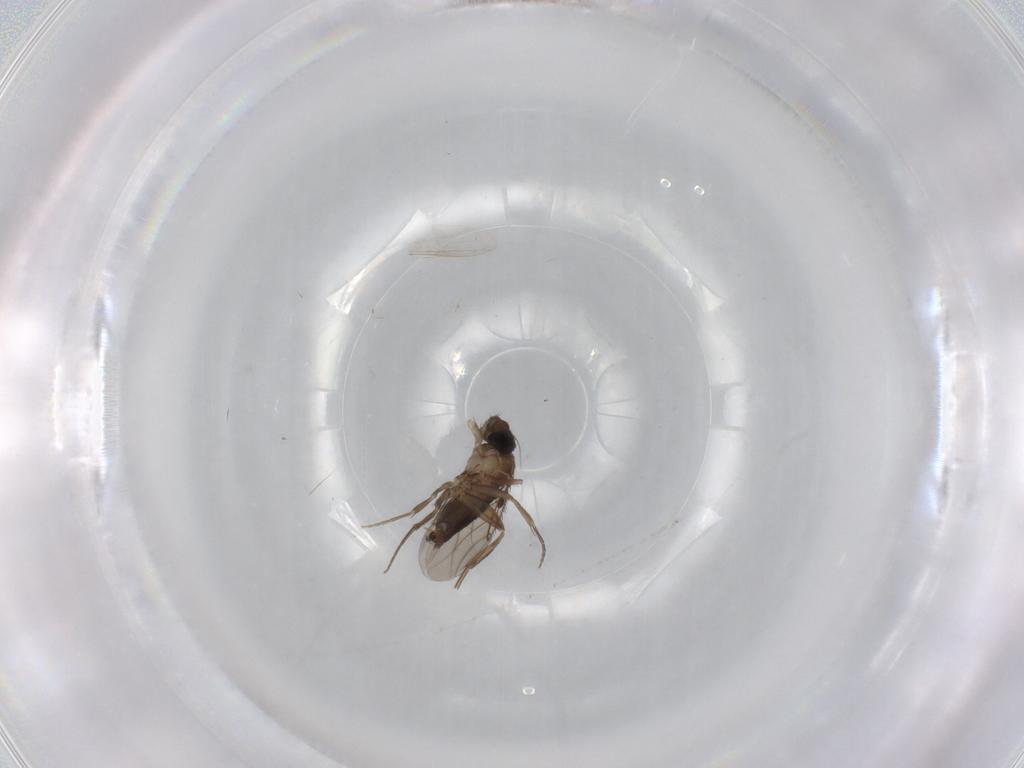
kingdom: Animalia
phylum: Arthropoda
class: Insecta
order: Diptera
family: Phoridae
